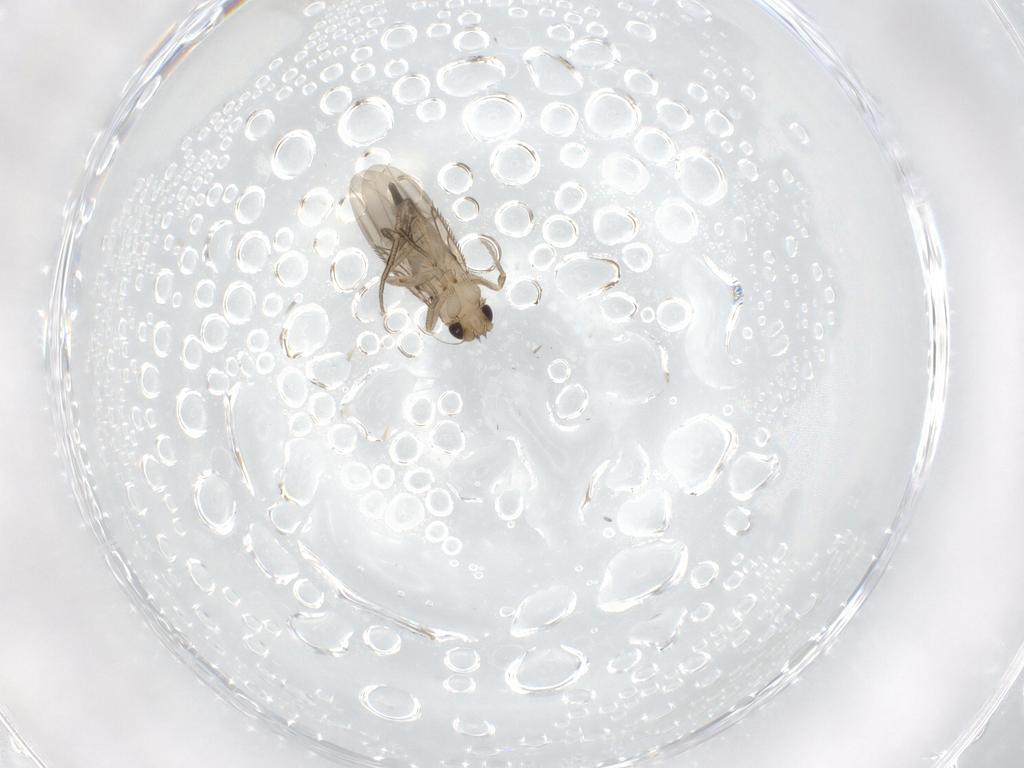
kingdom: Animalia
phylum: Arthropoda
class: Insecta
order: Diptera
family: Phoridae
